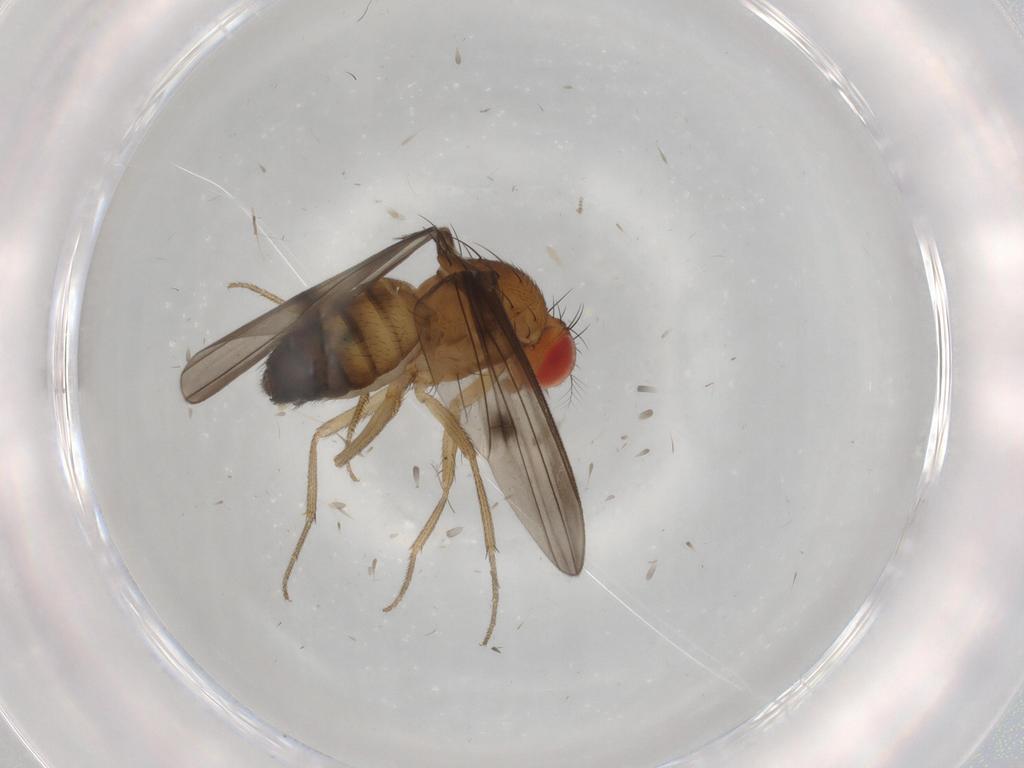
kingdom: Animalia
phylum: Arthropoda
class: Insecta
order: Diptera
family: Drosophilidae
